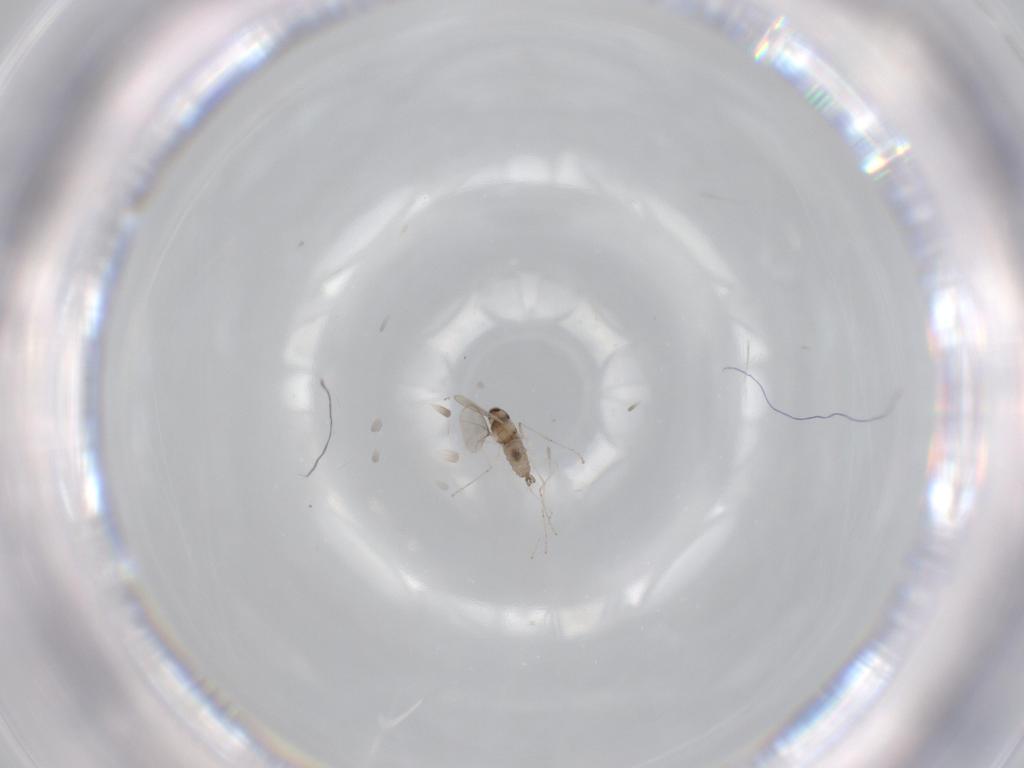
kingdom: Animalia
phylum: Arthropoda
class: Insecta
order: Diptera
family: Cecidomyiidae
